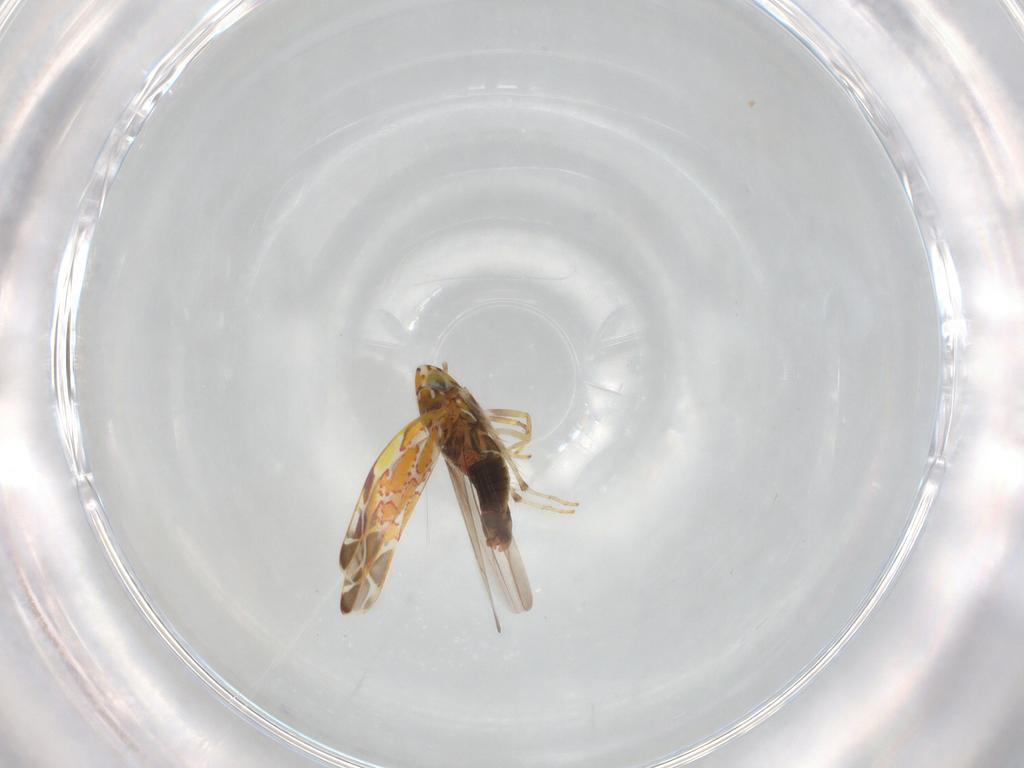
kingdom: Animalia
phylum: Arthropoda
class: Insecta
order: Hemiptera
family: Cicadellidae
